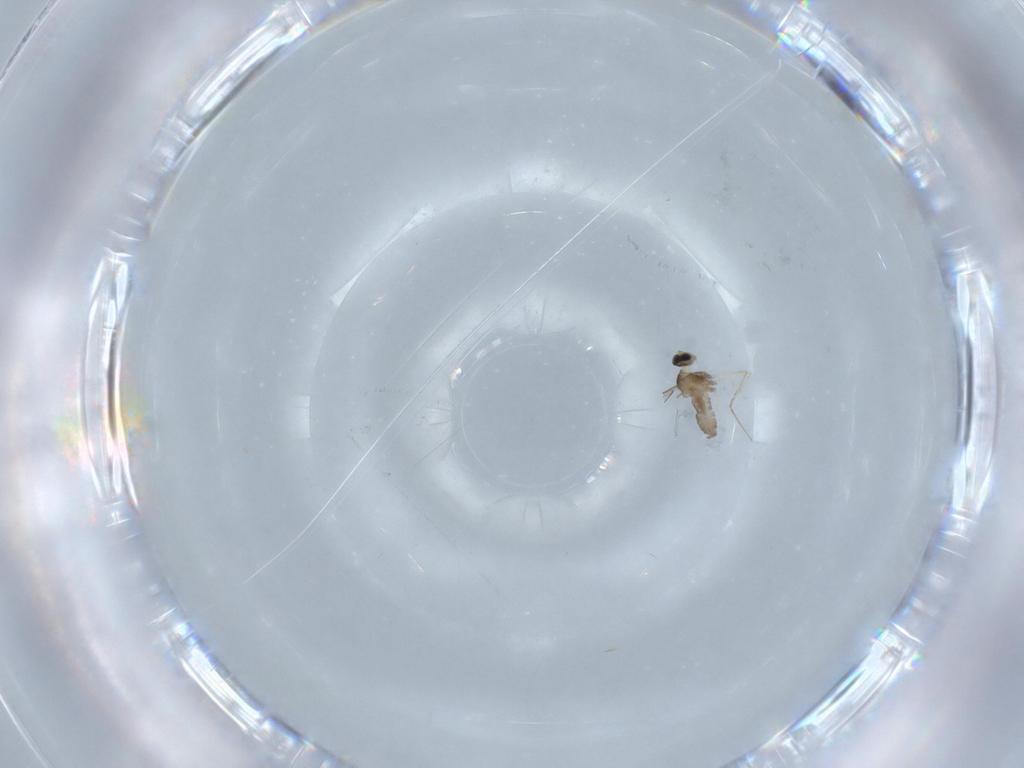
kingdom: Animalia
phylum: Arthropoda
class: Insecta
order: Diptera
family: Cecidomyiidae
